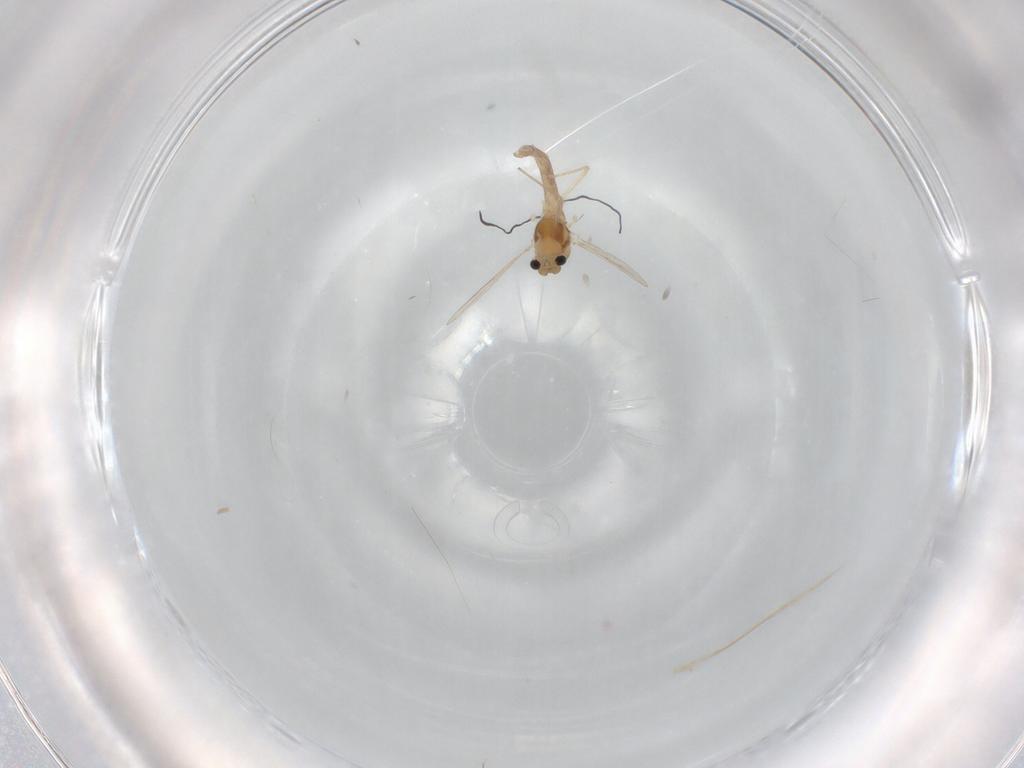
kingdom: Animalia
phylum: Arthropoda
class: Insecta
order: Diptera
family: Chironomidae
